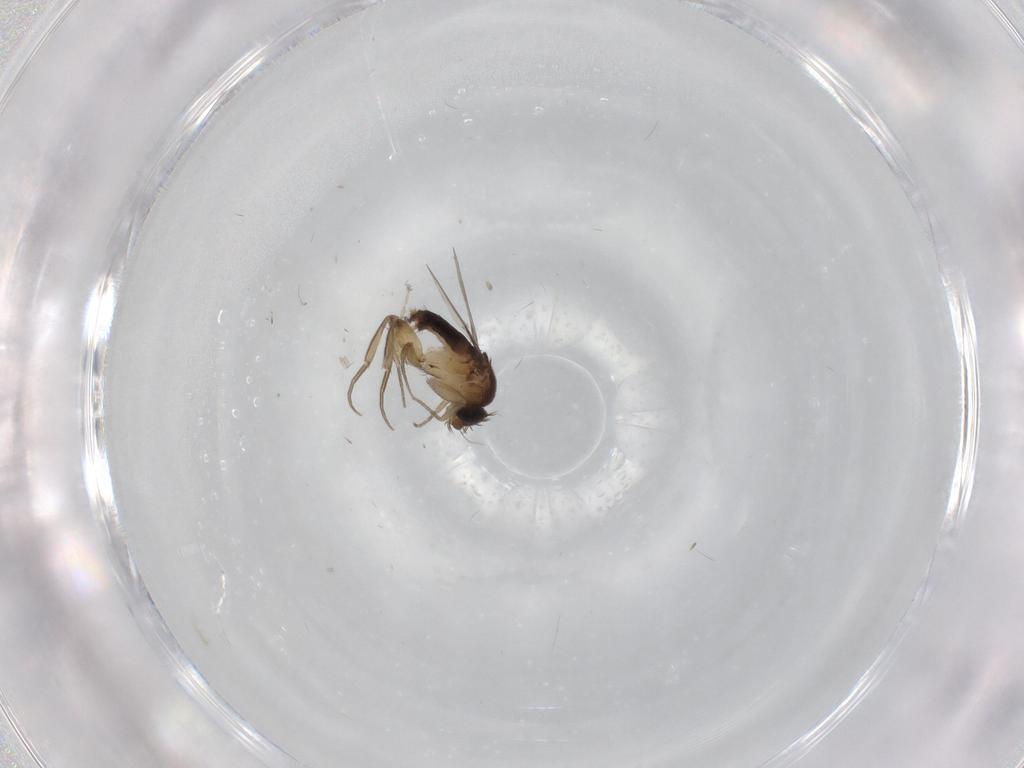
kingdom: Animalia
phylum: Arthropoda
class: Insecta
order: Diptera
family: Phoridae
